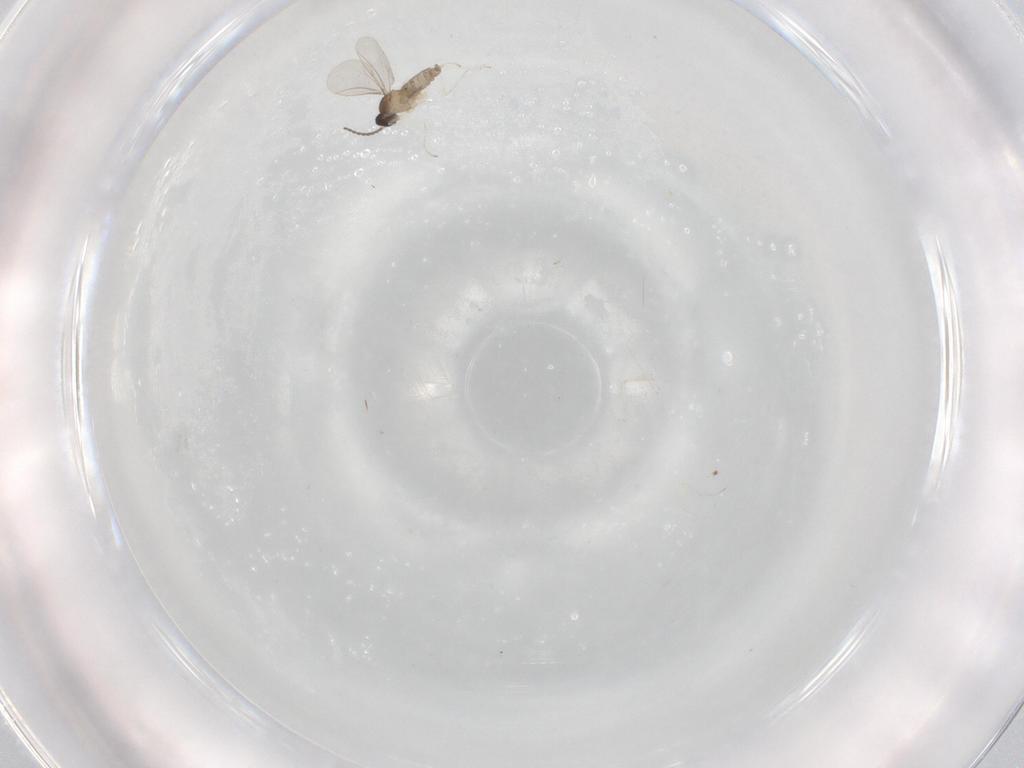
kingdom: Animalia
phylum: Arthropoda
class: Insecta
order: Diptera
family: Cecidomyiidae
